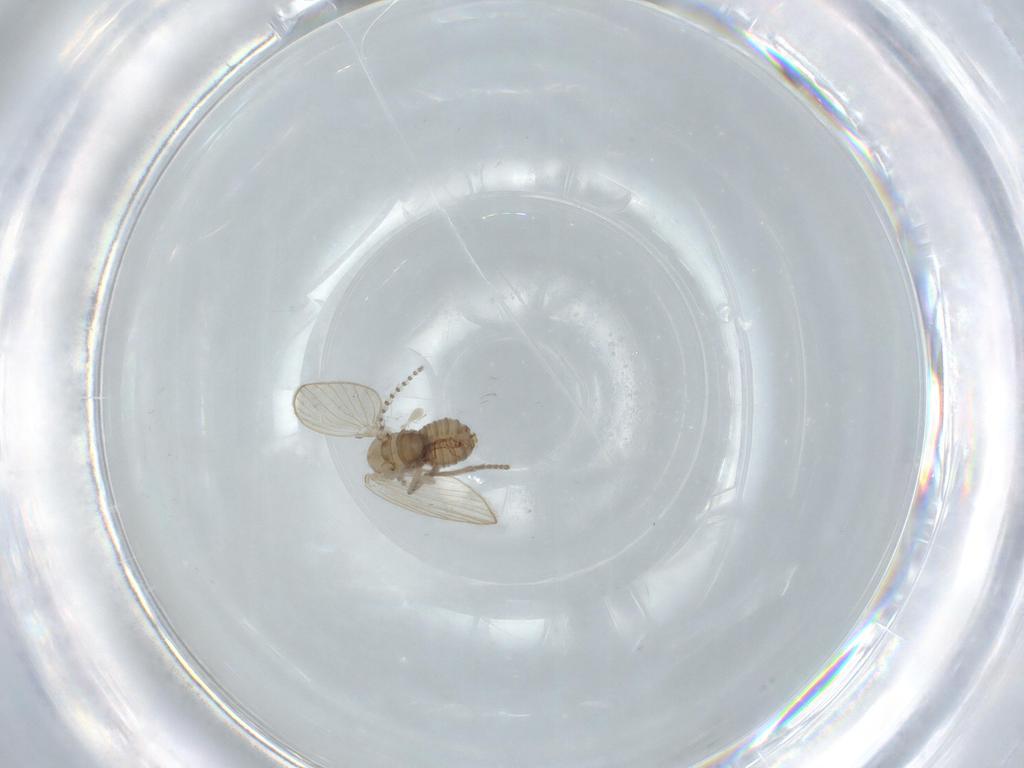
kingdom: Animalia
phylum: Arthropoda
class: Insecta
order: Diptera
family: Psychodidae
